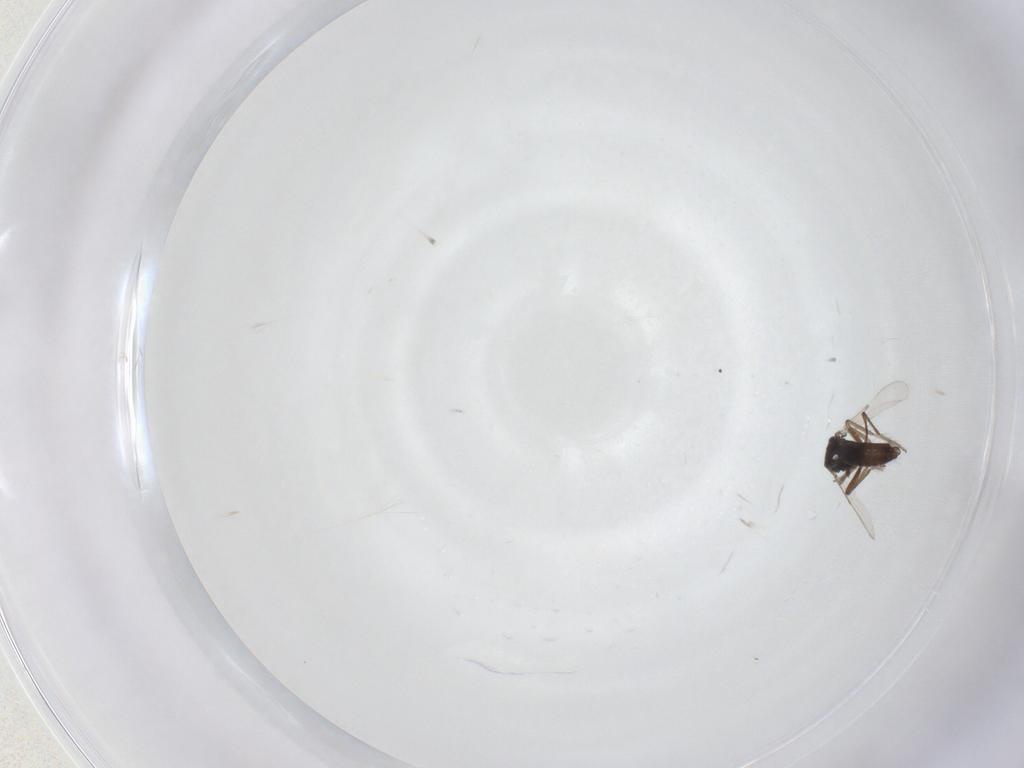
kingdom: Animalia
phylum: Arthropoda
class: Insecta
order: Diptera
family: Ceratopogonidae
